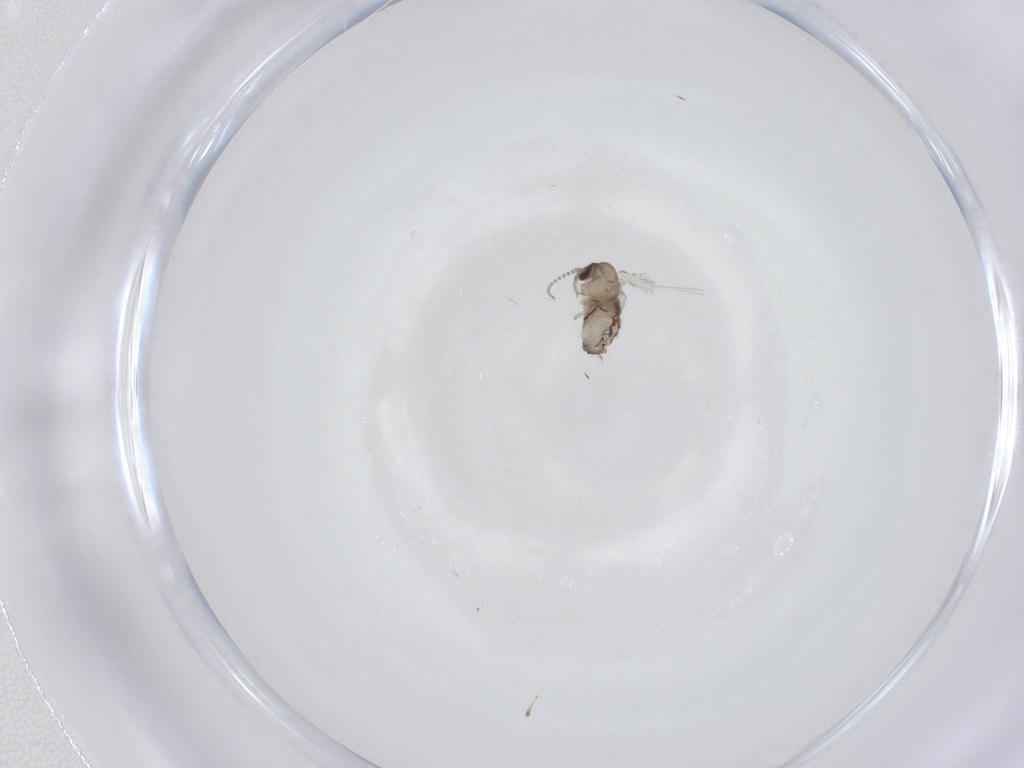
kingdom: Animalia
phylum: Arthropoda
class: Insecta
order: Diptera
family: Psychodidae
